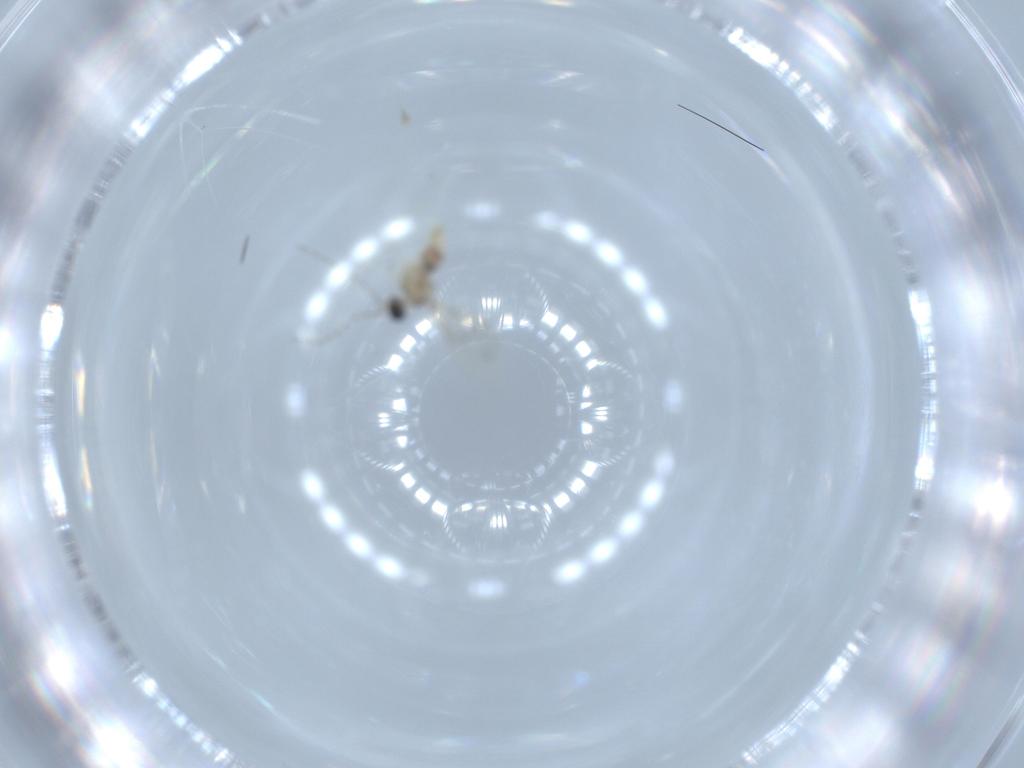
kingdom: Animalia
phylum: Arthropoda
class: Insecta
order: Diptera
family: Cecidomyiidae
